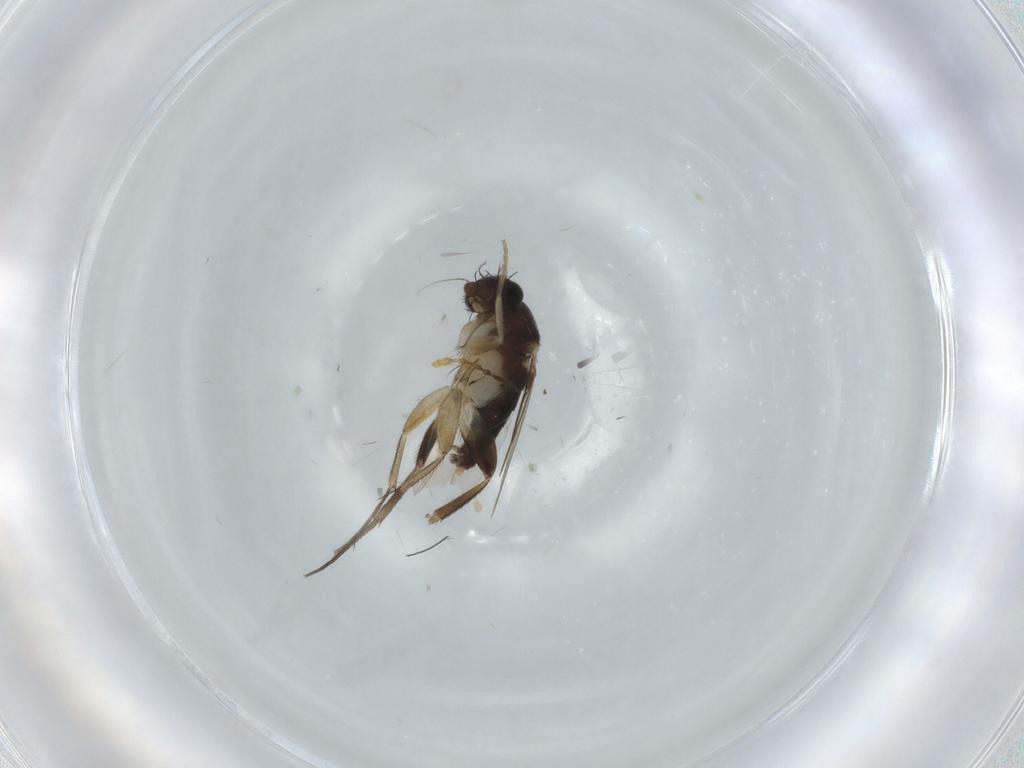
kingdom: Animalia
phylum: Arthropoda
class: Insecta
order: Diptera
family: Phoridae
